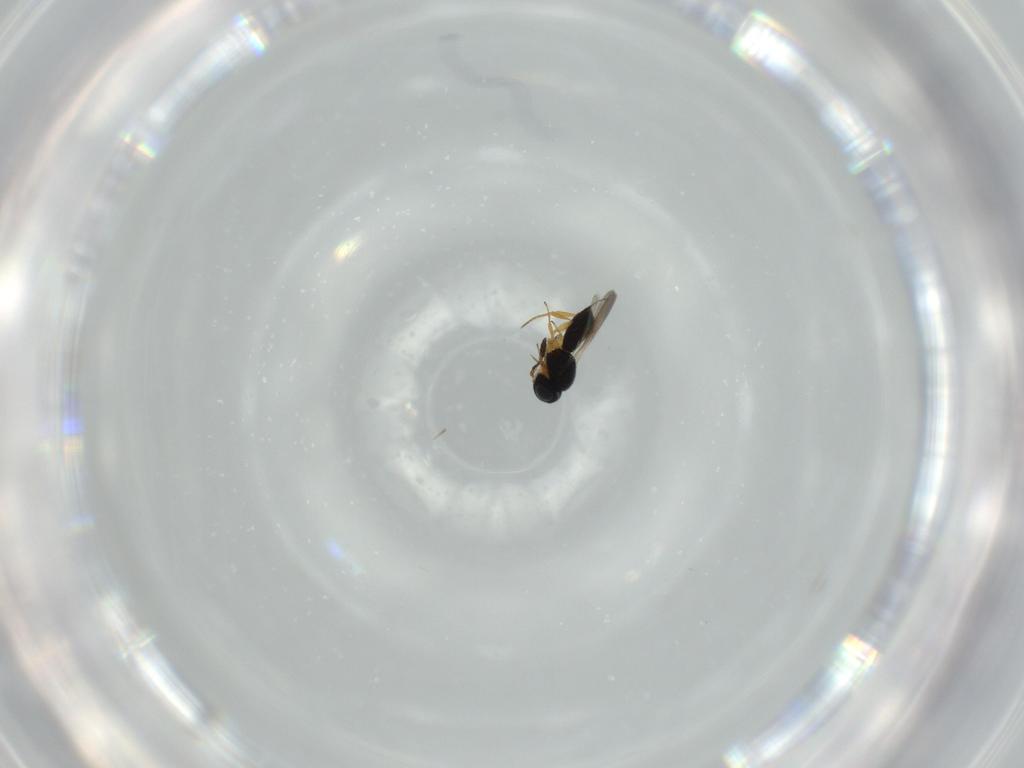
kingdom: Animalia
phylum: Arthropoda
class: Insecta
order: Hymenoptera
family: Scelionidae
